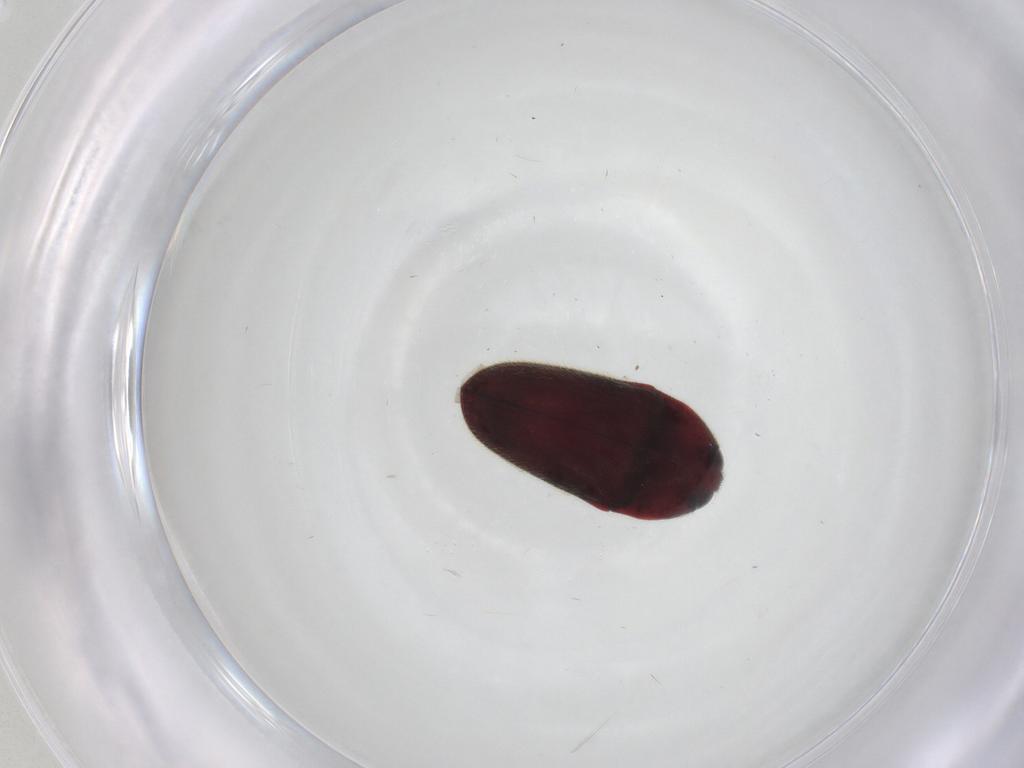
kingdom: Animalia
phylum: Arthropoda
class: Insecta
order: Coleoptera
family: Throscidae
